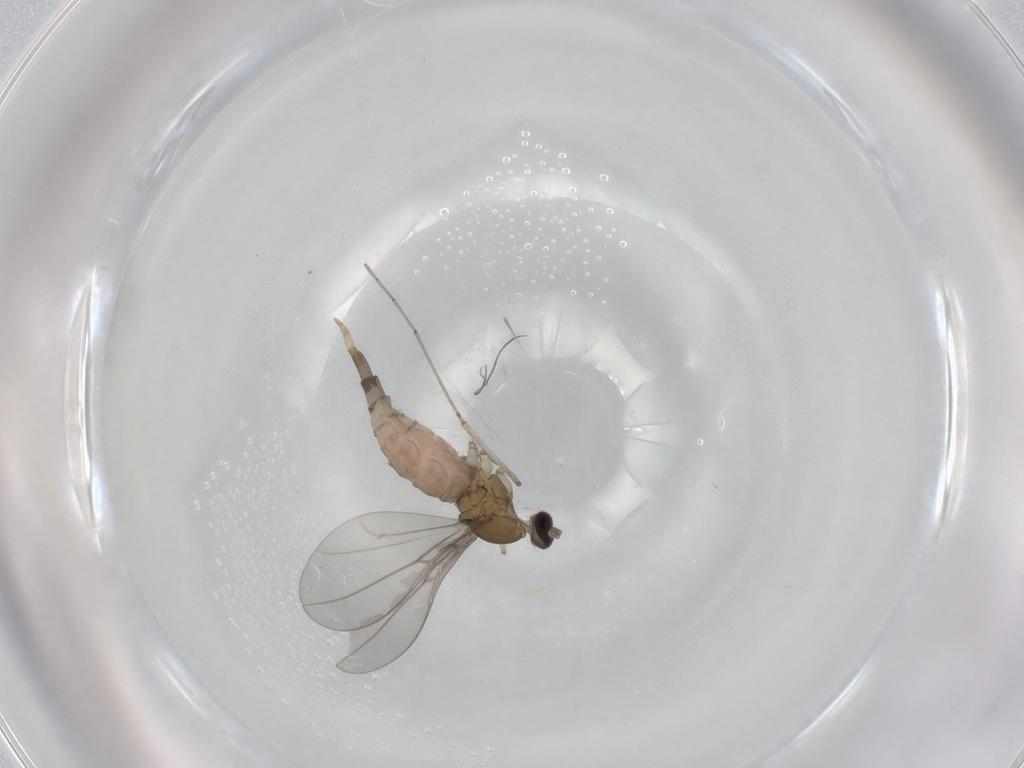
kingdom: Animalia
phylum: Arthropoda
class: Insecta
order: Diptera
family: Cecidomyiidae
